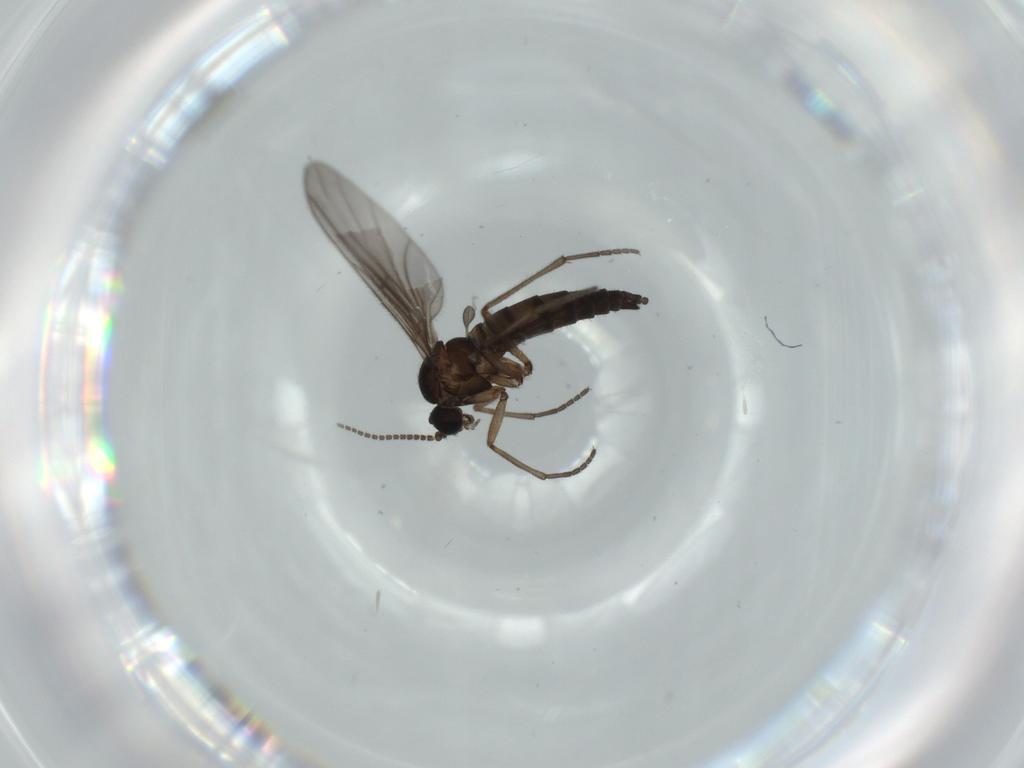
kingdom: Animalia
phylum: Arthropoda
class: Insecta
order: Diptera
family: Sciaridae
